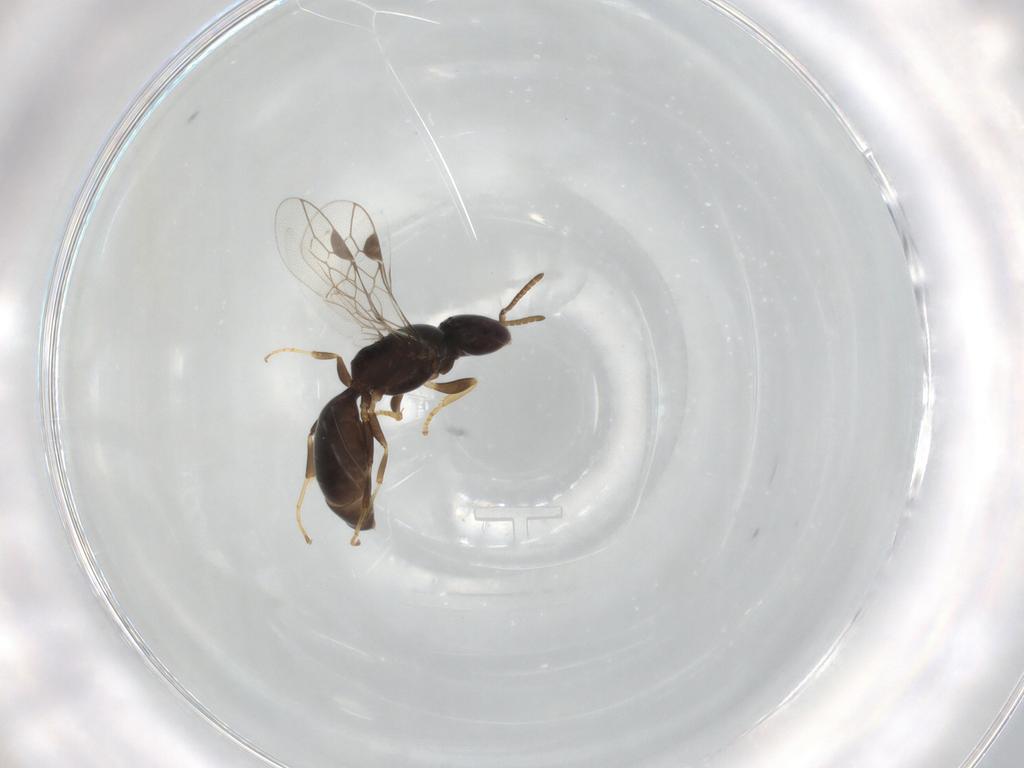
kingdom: Animalia
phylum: Arthropoda
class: Insecta
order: Hymenoptera
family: Pemphredonidae
